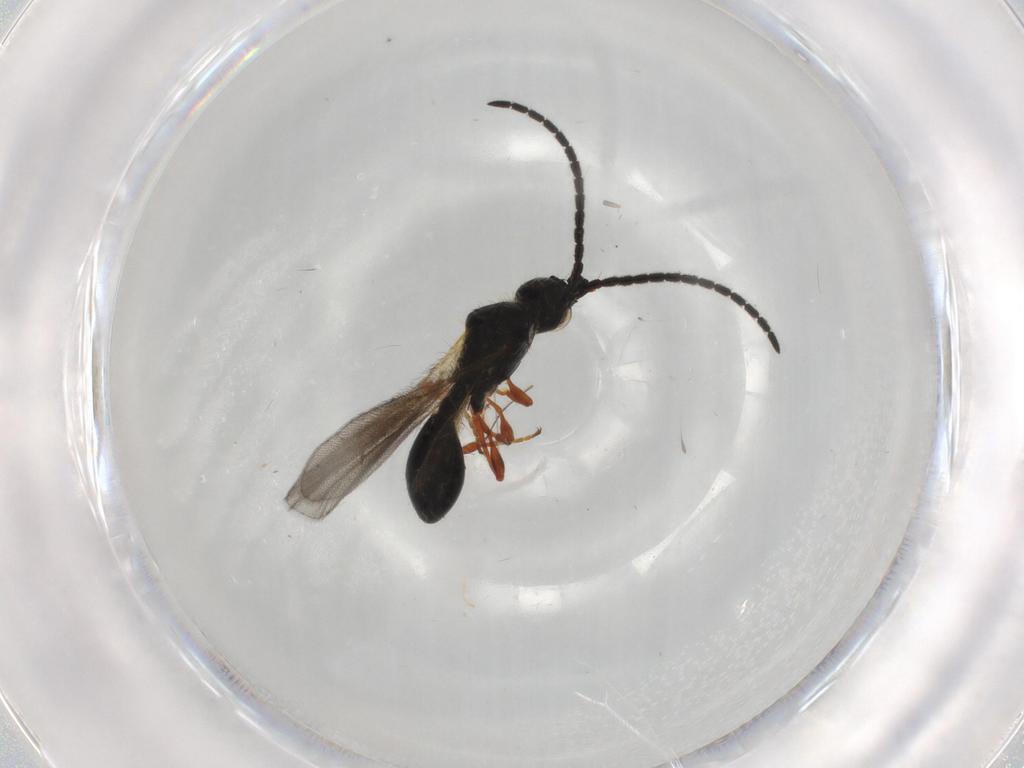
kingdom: Animalia
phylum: Arthropoda
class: Insecta
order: Hymenoptera
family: Diapriidae
